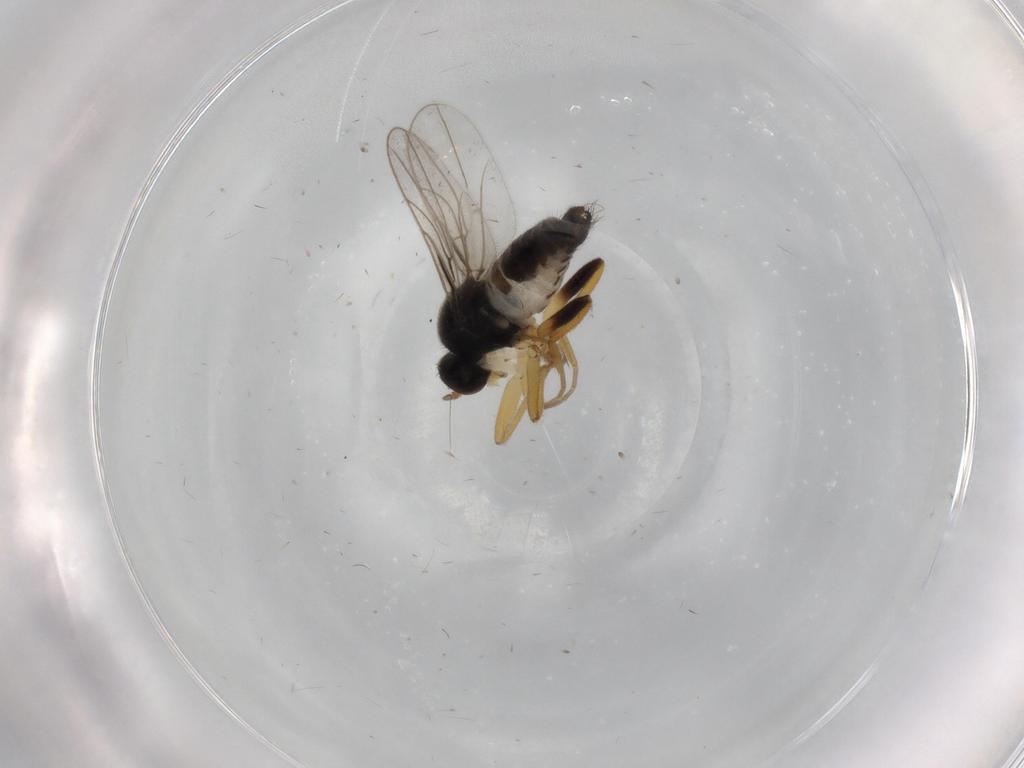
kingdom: Animalia
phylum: Arthropoda
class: Insecta
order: Diptera
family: Hybotidae
